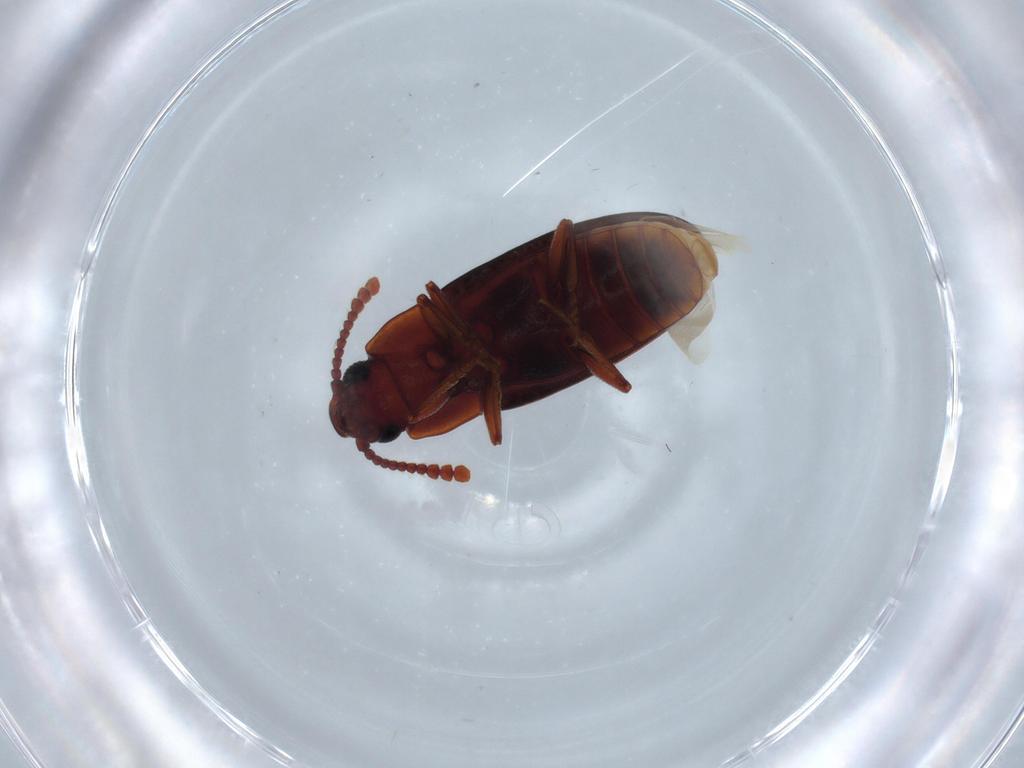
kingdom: Animalia
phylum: Arthropoda
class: Insecta
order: Coleoptera
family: Erotylidae
